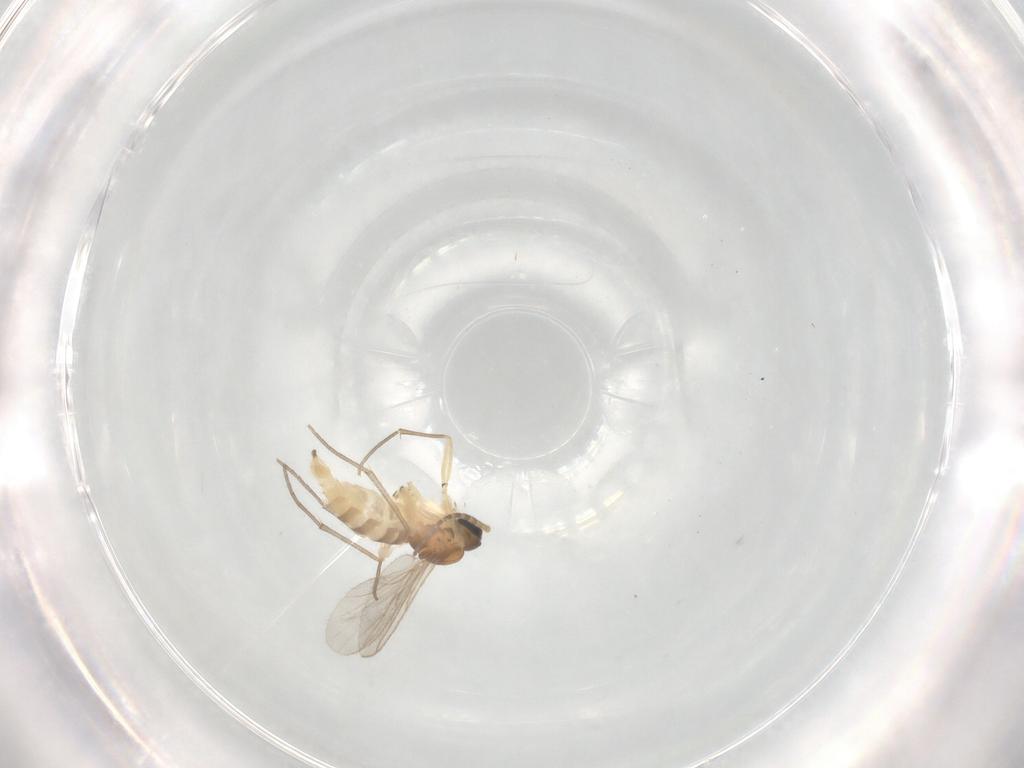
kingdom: Animalia
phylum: Arthropoda
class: Insecta
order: Diptera
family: Sciaridae
